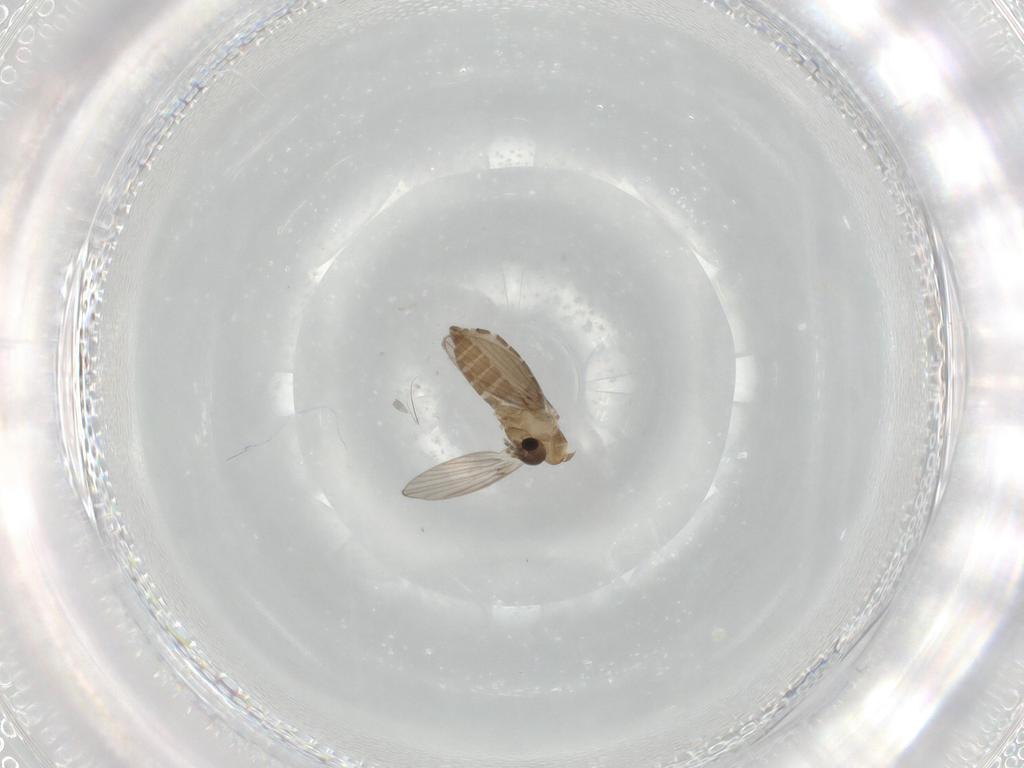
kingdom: Animalia
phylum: Arthropoda
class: Insecta
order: Diptera
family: Psychodidae
